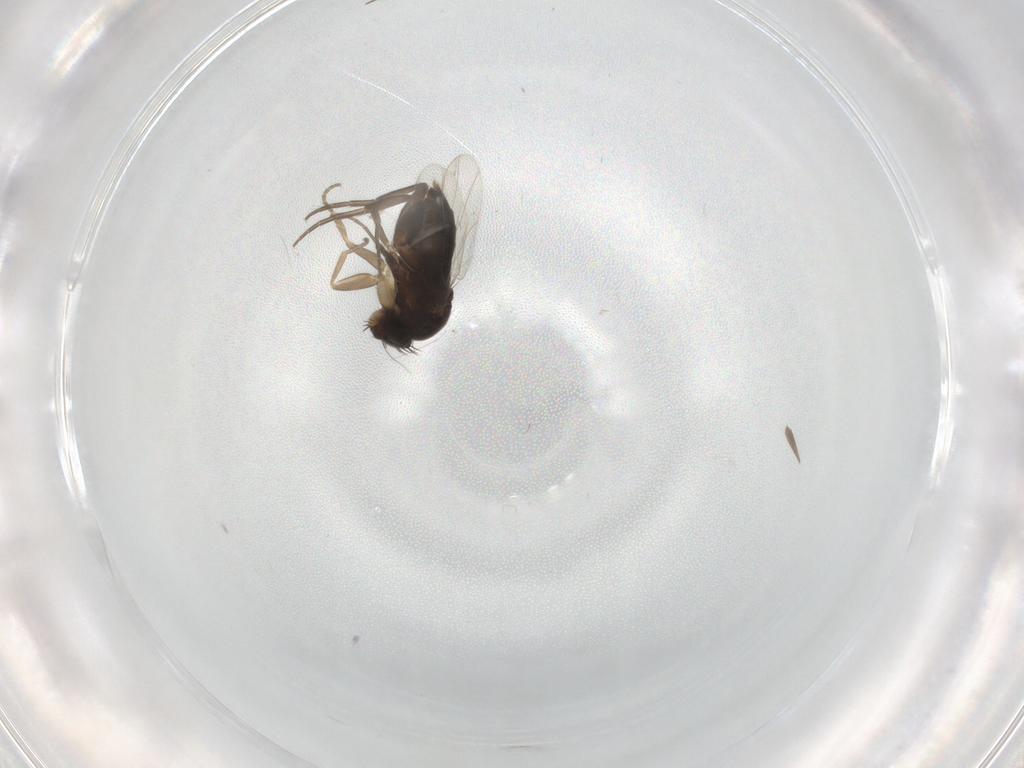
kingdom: Animalia
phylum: Arthropoda
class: Insecta
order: Diptera
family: Phoridae
